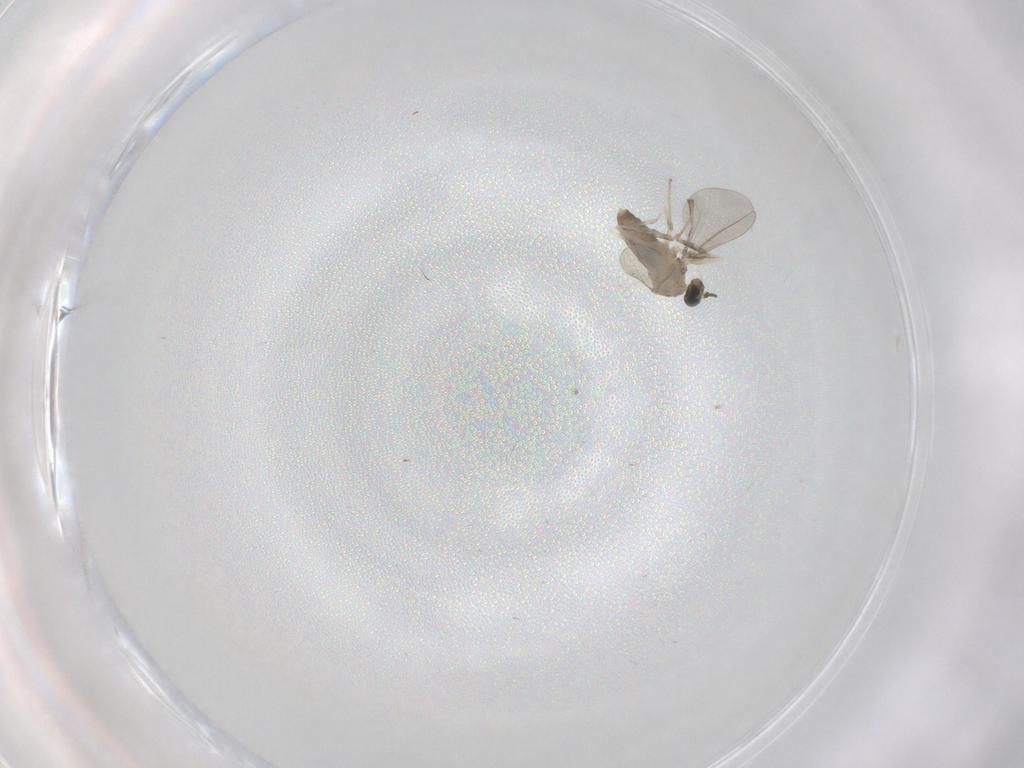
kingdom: Animalia
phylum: Arthropoda
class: Insecta
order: Diptera
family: Cecidomyiidae
